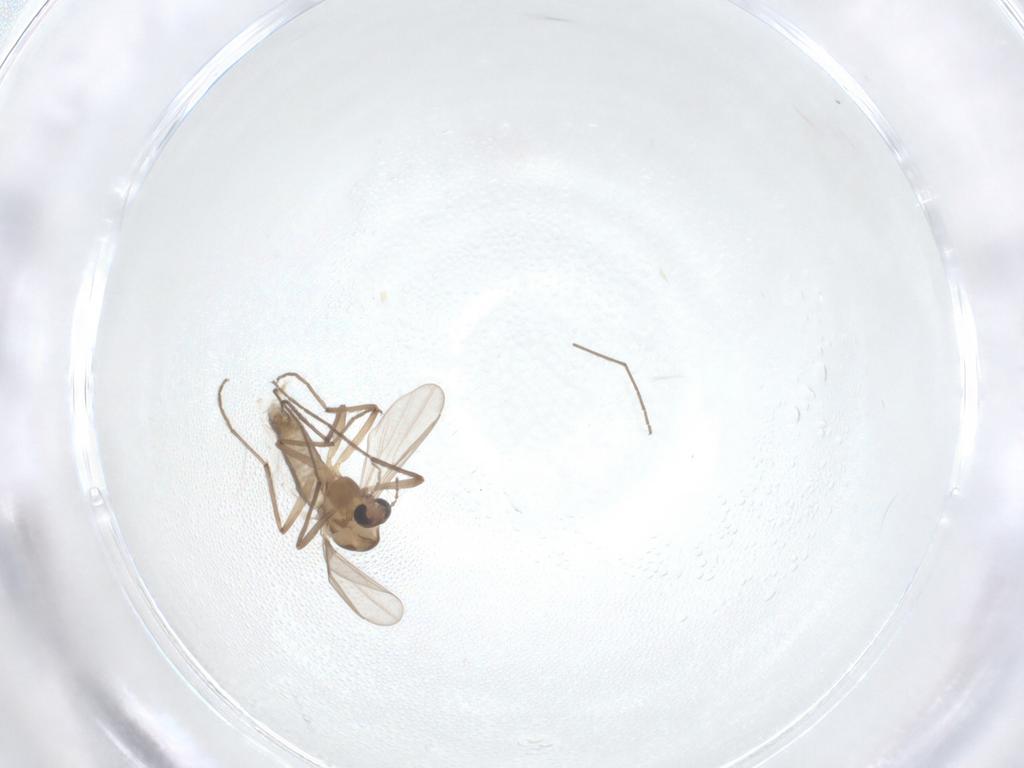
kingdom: Animalia
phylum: Arthropoda
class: Insecta
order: Diptera
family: Chironomidae
